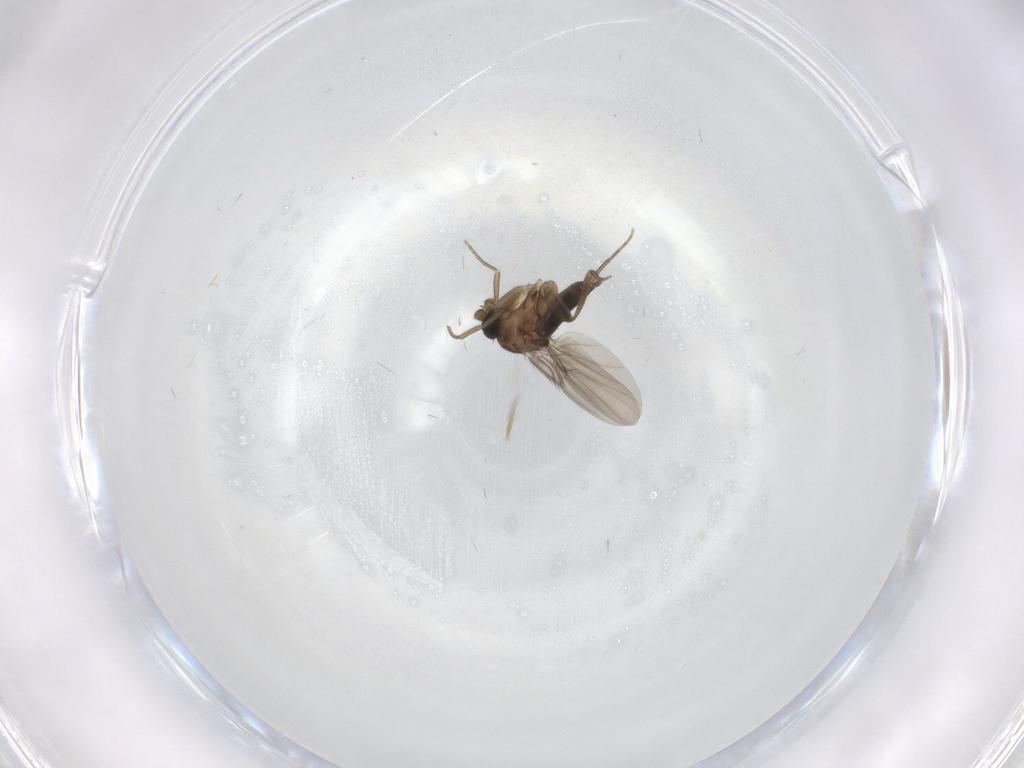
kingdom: Animalia
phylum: Arthropoda
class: Insecta
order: Diptera
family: Phoridae
